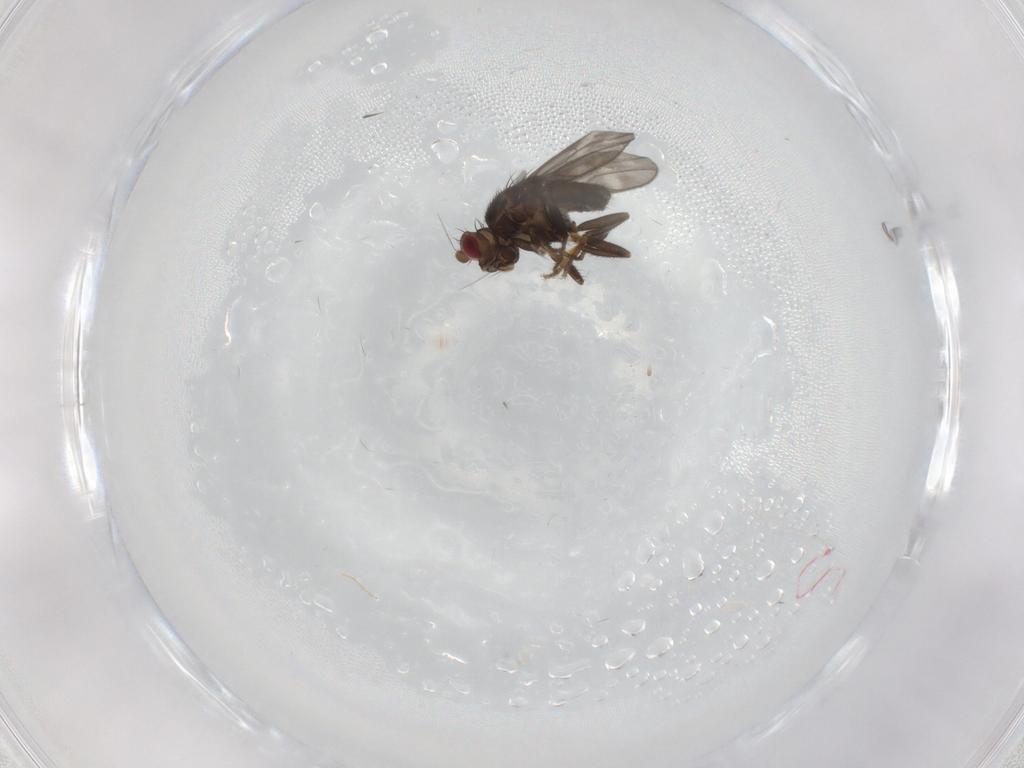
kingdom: Animalia
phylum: Arthropoda
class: Insecta
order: Diptera
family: Sphaeroceridae
